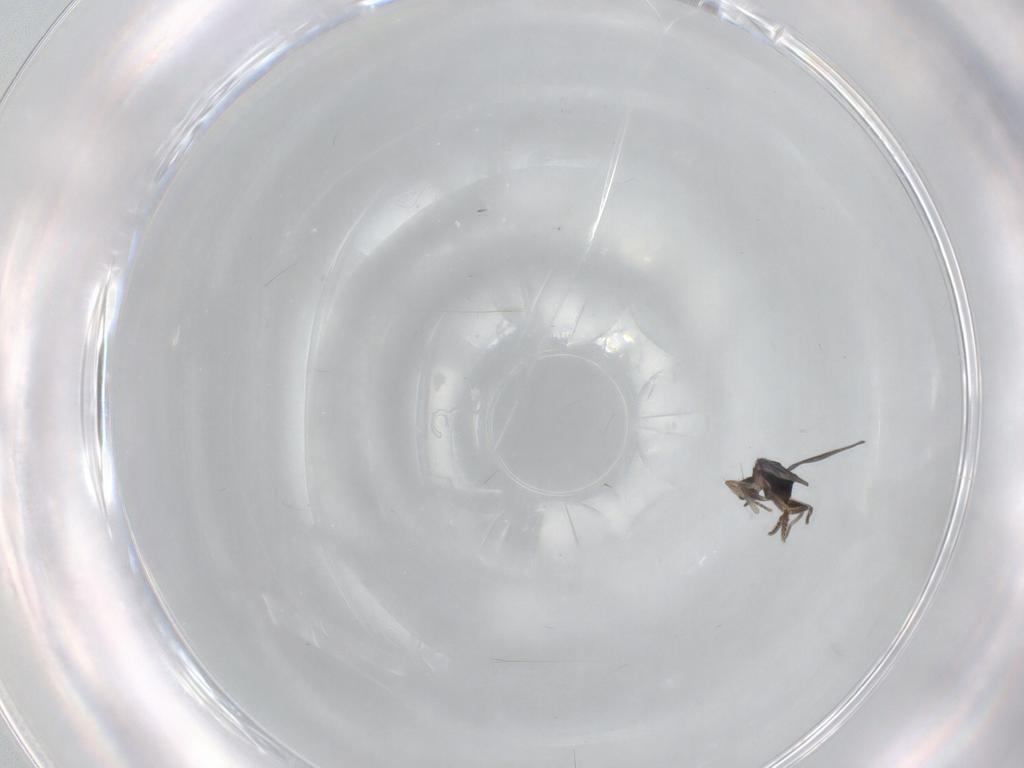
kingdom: Animalia
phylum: Arthropoda
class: Insecta
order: Diptera
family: Phoridae
